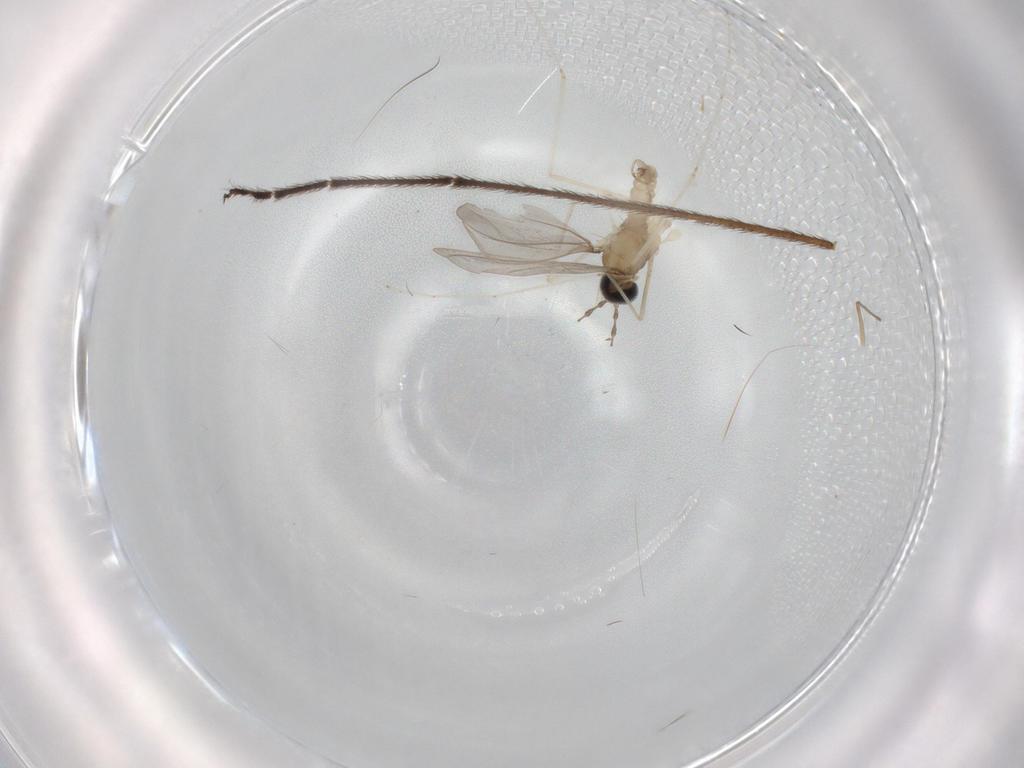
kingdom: Animalia
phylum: Arthropoda
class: Insecta
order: Diptera
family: Cecidomyiidae
